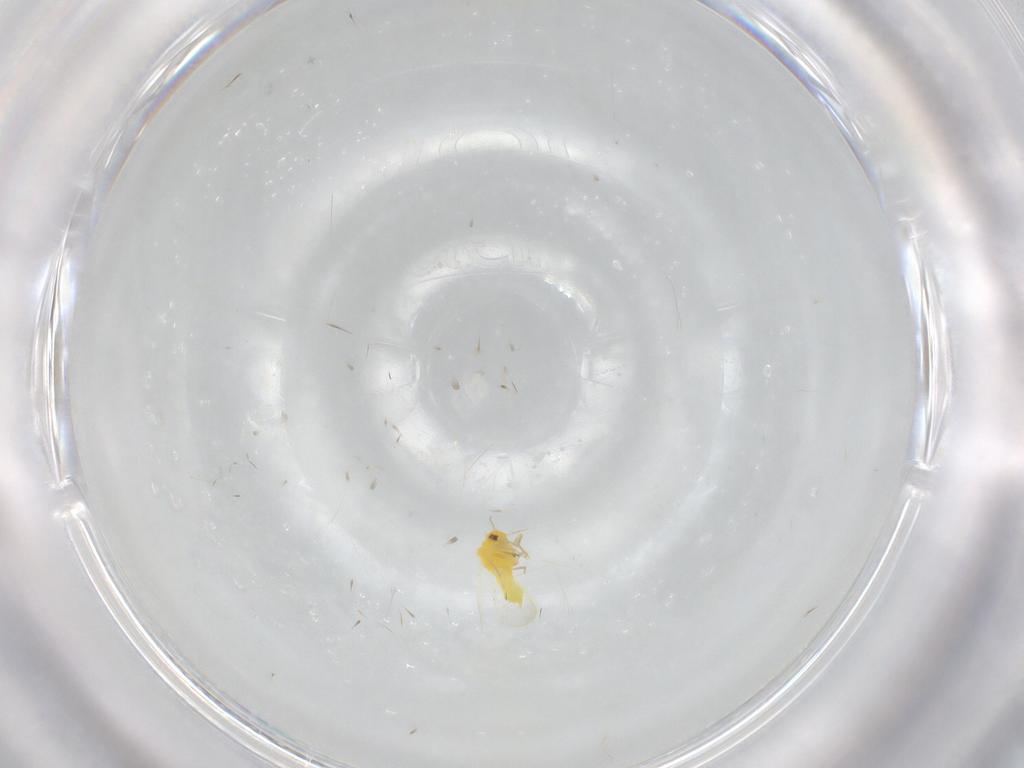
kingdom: Animalia
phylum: Arthropoda
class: Insecta
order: Hemiptera
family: Aleyrodidae
